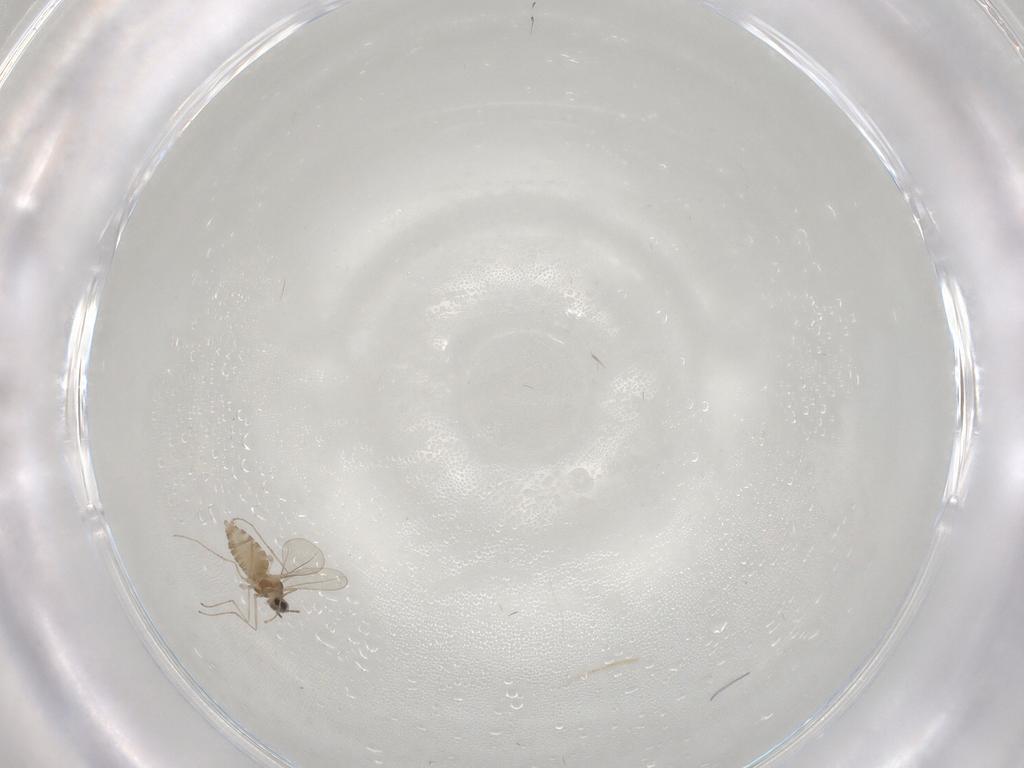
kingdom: Animalia
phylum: Arthropoda
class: Insecta
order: Diptera
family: Cecidomyiidae
